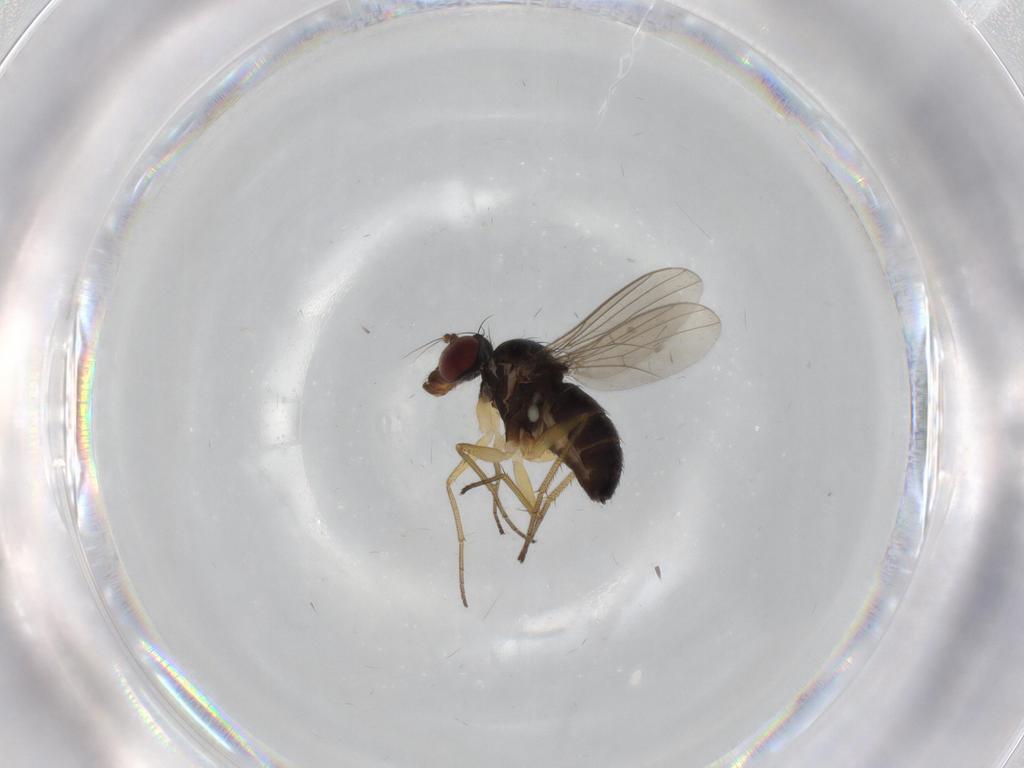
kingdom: Animalia
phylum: Arthropoda
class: Insecta
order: Diptera
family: Dolichopodidae
